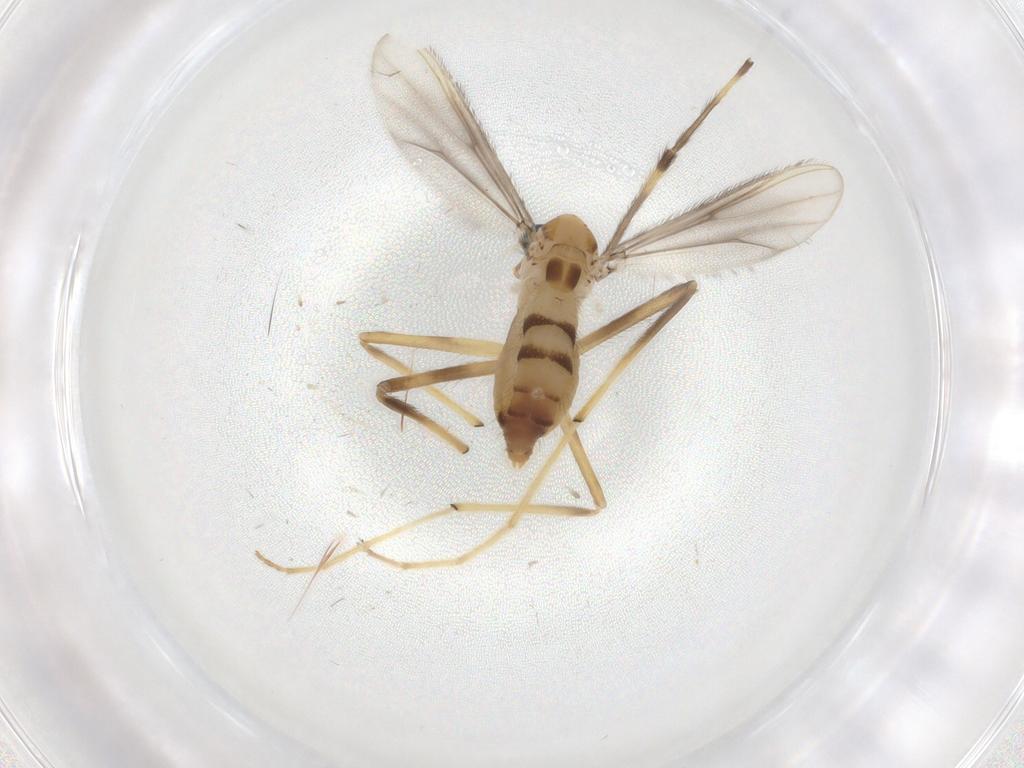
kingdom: Animalia
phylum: Arthropoda
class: Insecta
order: Diptera
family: Chironomidae
